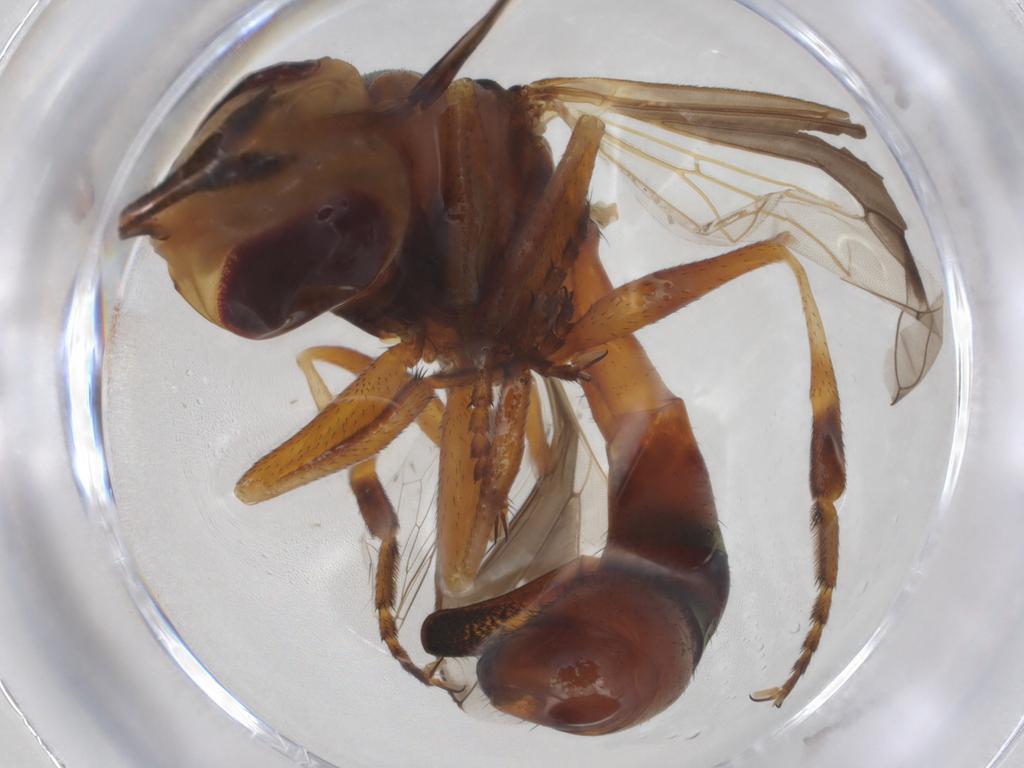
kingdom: Animalia
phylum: Arthropoda
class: Insecta
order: Diptera
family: Conopidae
